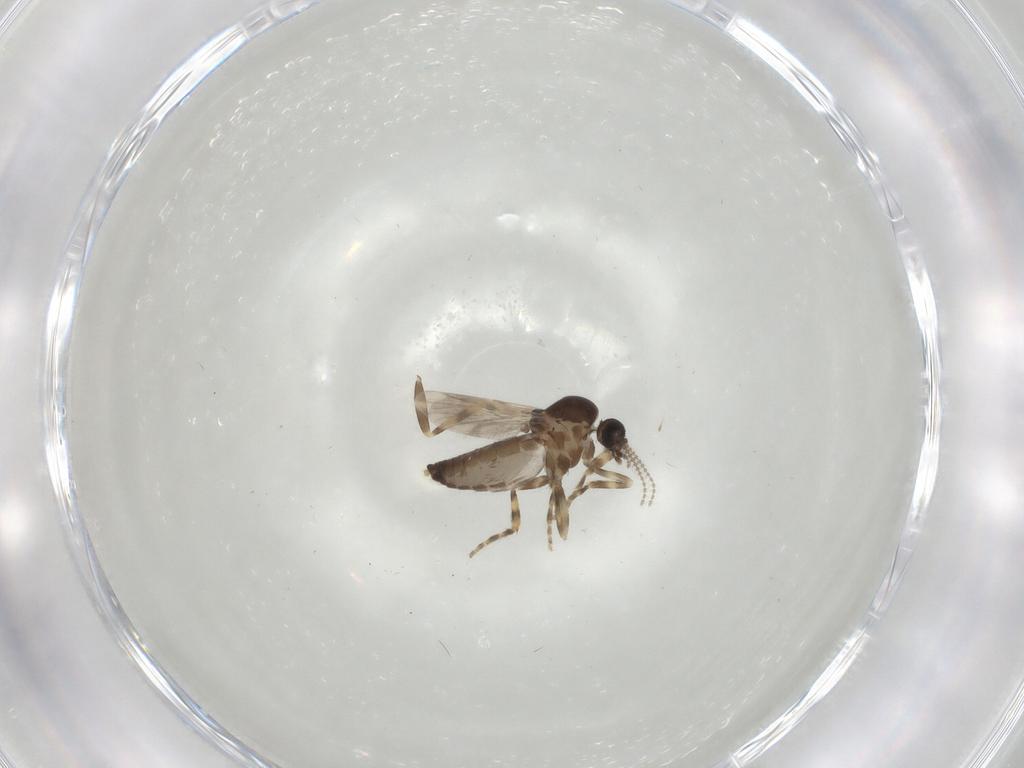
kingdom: Animalia
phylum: Arthropoda
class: Insecta
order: Diptera
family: Ceratopogonidae
